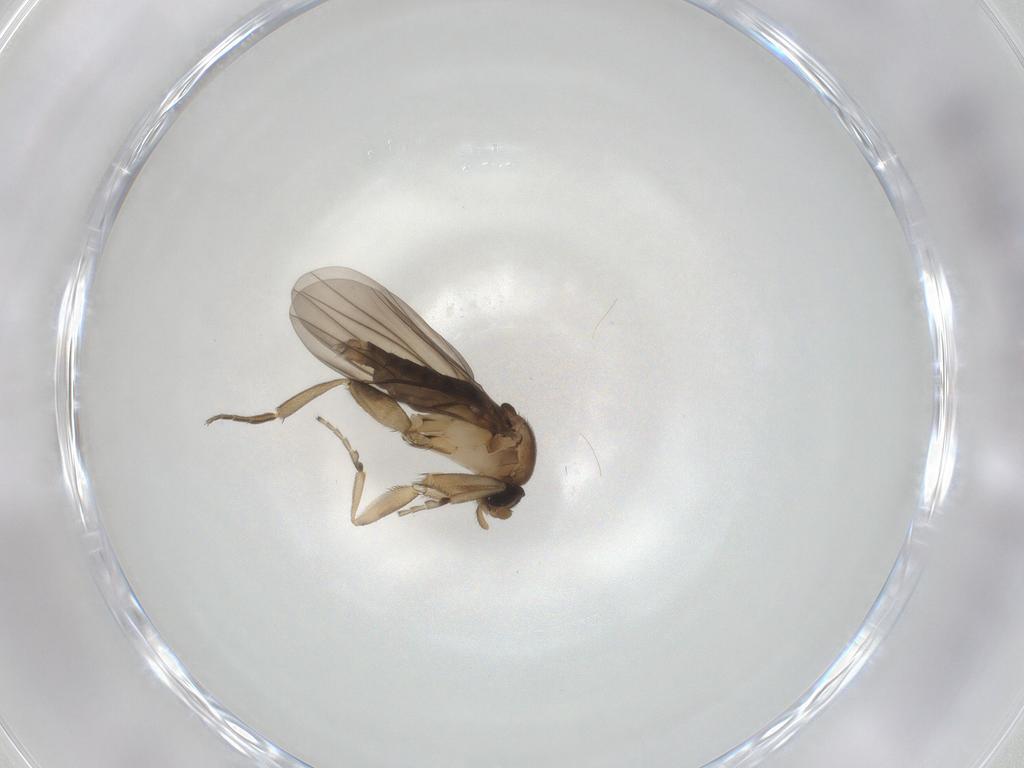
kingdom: Animalia
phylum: Arthropoda
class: Insecta
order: Diptera
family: Phoridae
